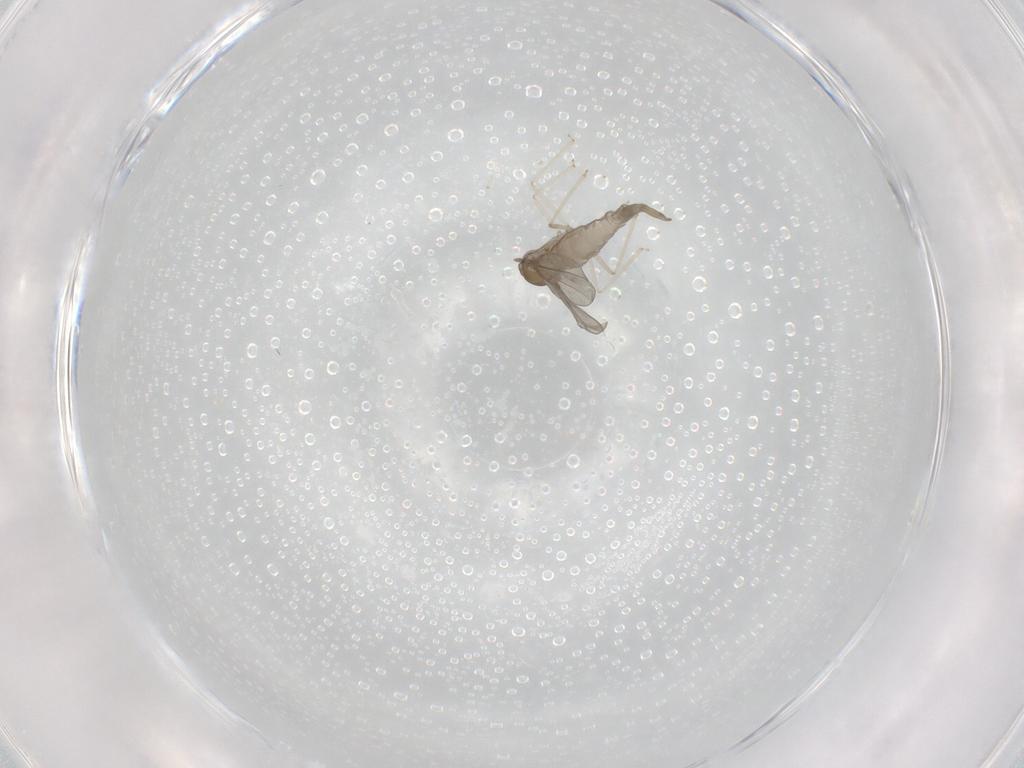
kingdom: Animalia
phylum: Arthropoda
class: Insecta
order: Diptera
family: Cecidomyiidae
